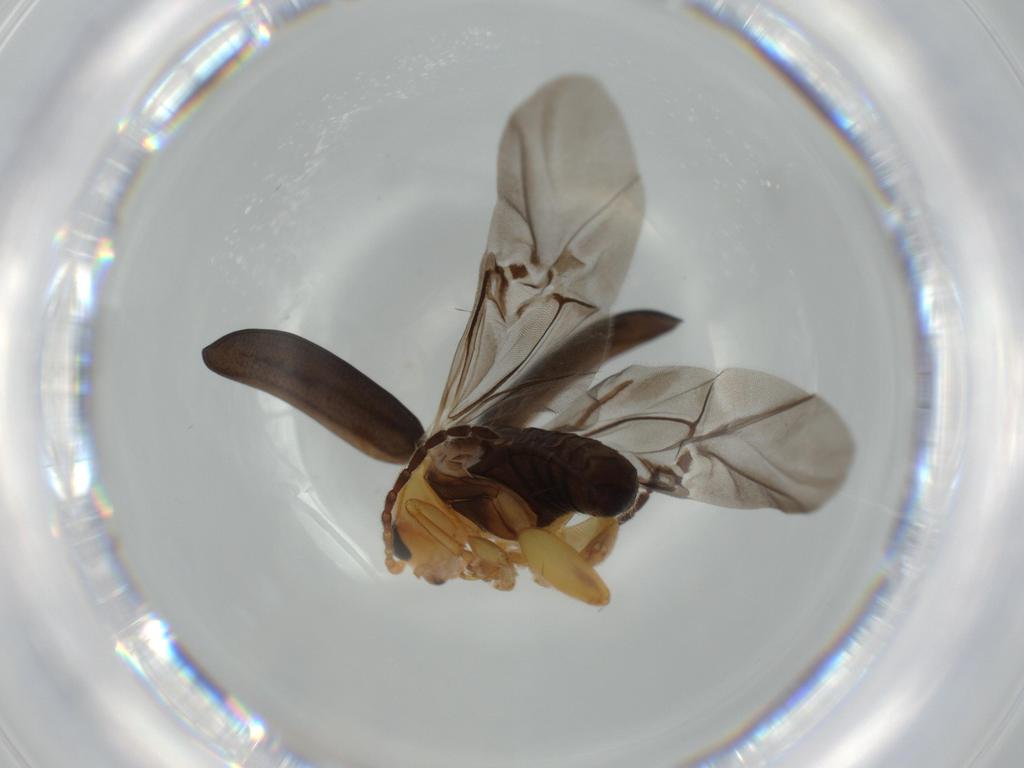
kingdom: Animalia
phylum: Arthropoda
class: Insecta
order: Coleoptera
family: Chrysomelidae
